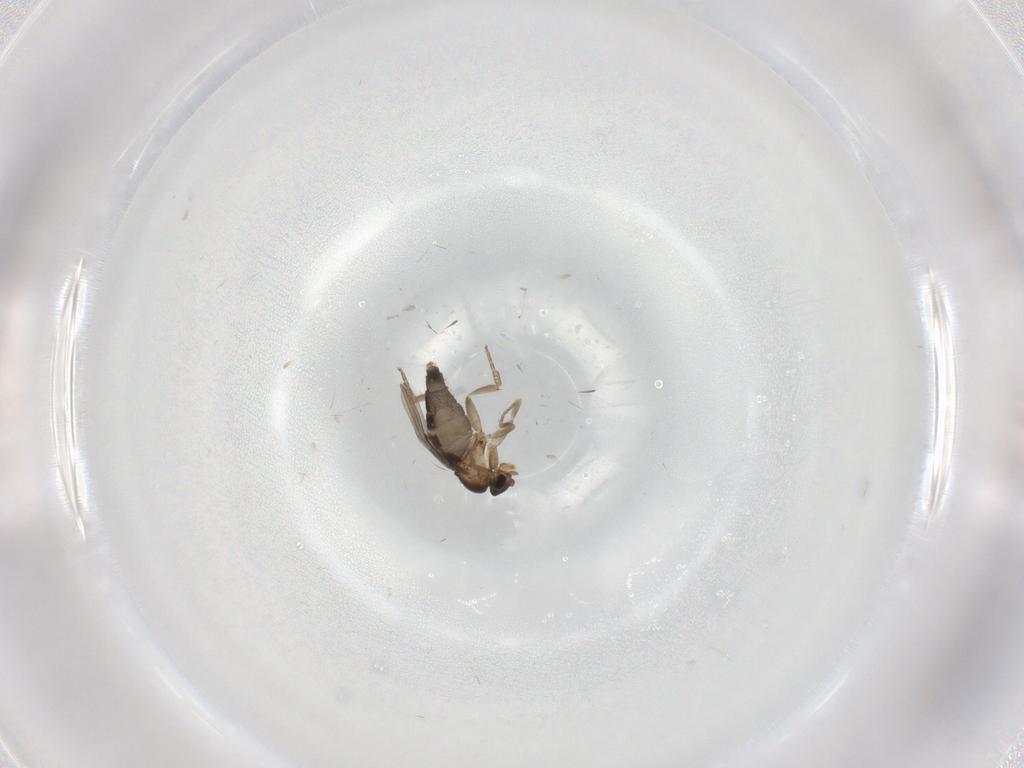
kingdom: Animalia
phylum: Arthropoda
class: Insecta
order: Diptera
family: Phoridae
